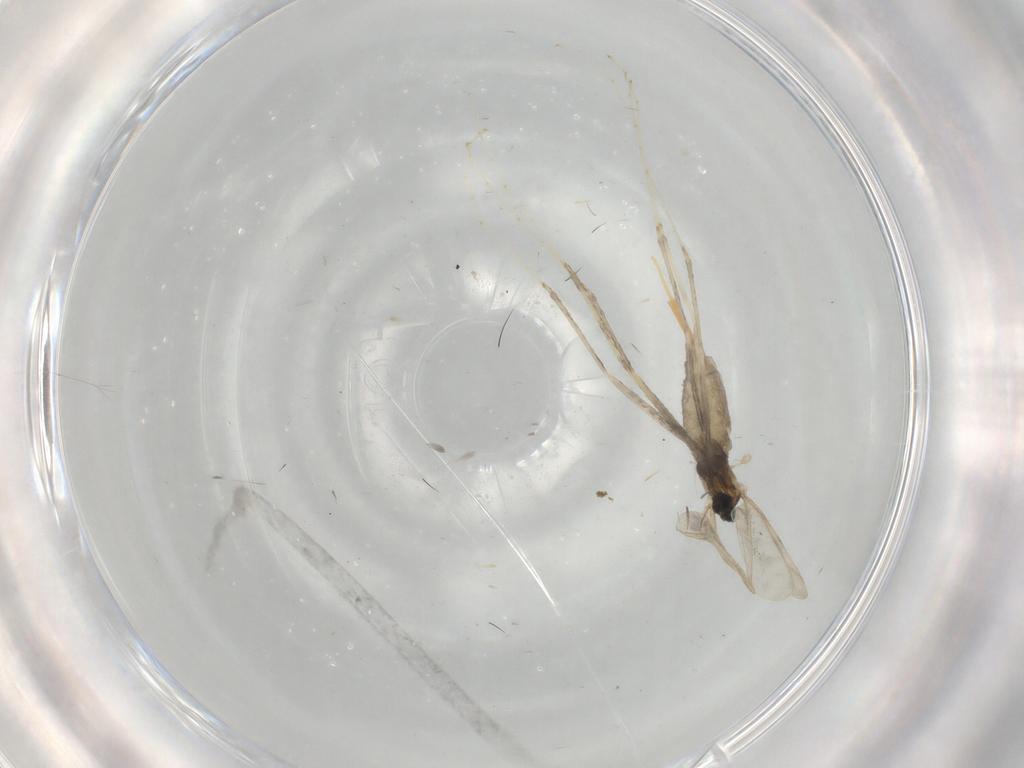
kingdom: Animalia
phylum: Arthropoda
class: Insecta
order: Diptera
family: Cecidomyiidae
